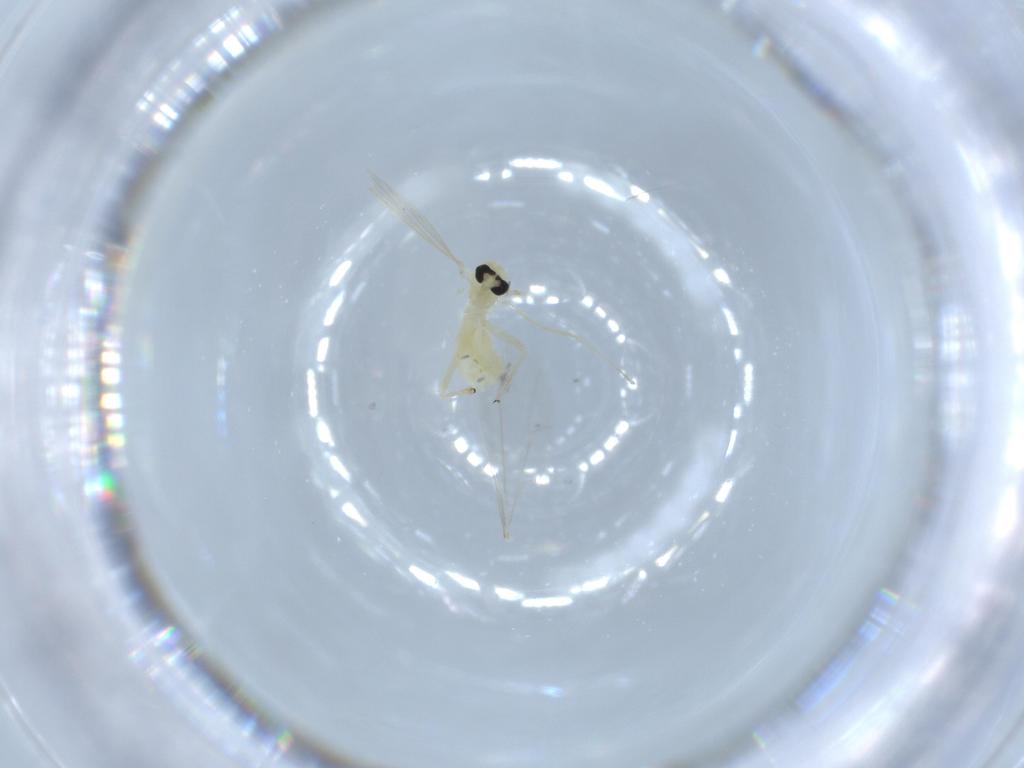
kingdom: Animalia
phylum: Arthropoda
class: Insecta
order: Diptera
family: Chironomidae
